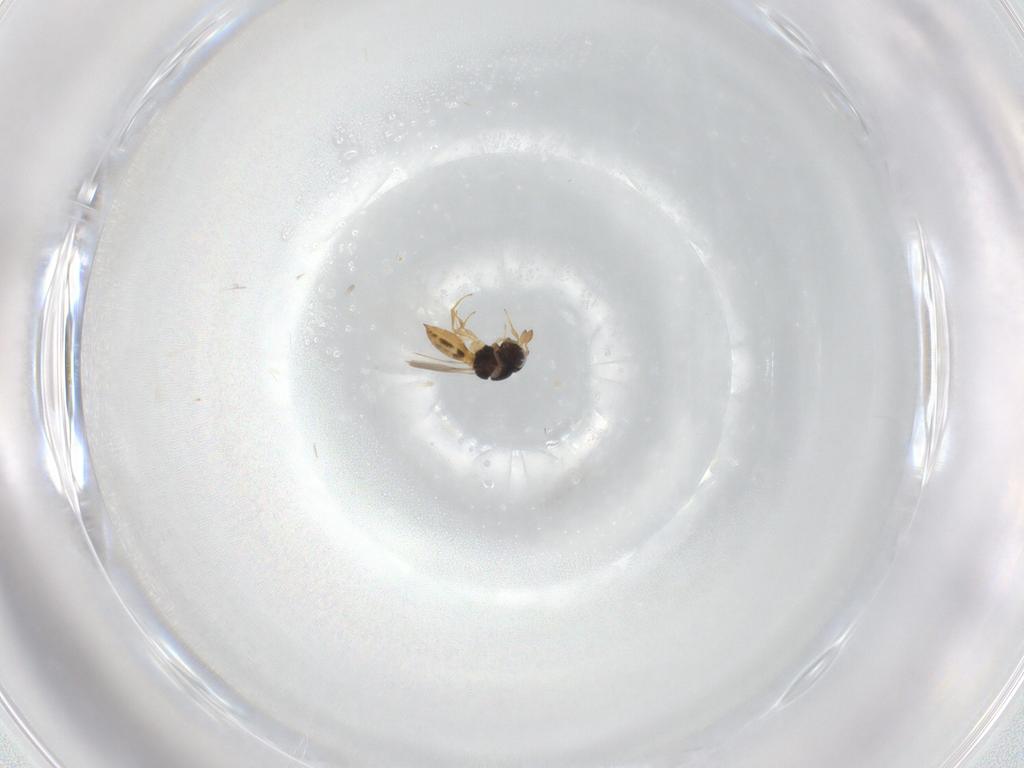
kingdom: Animalia
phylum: Arthropoda
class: Insecta
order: Hymenoptera
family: Scelionidae
